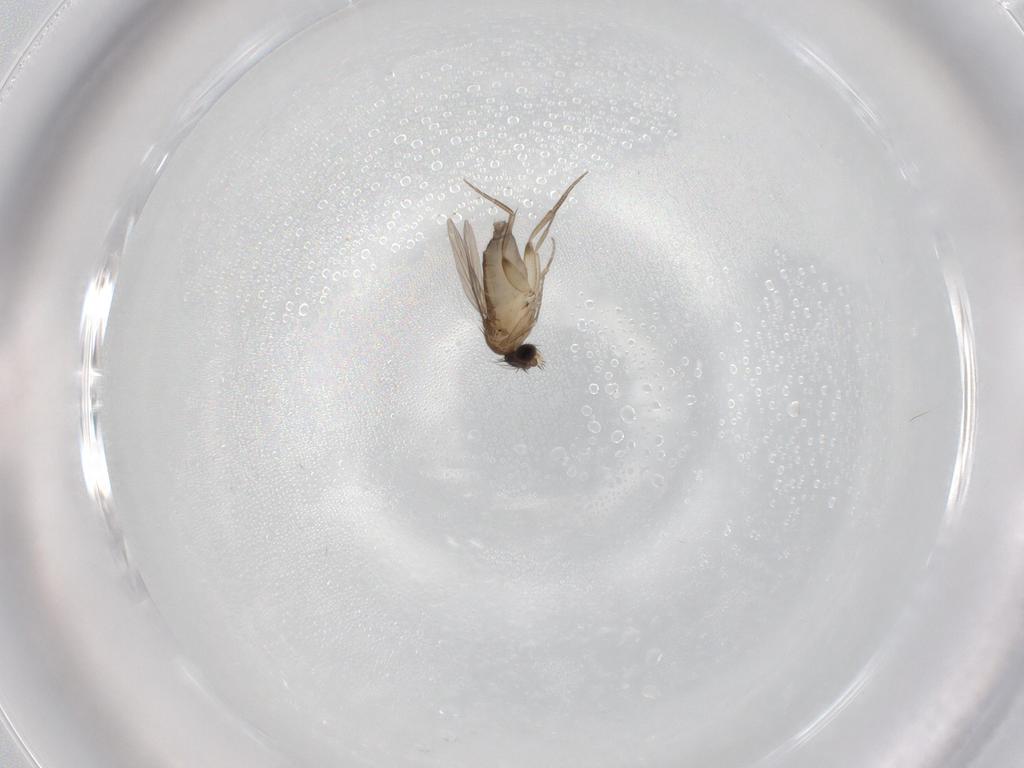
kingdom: Animalia
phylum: Arthropoda
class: Insecta
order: Diptera
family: Phoridae
